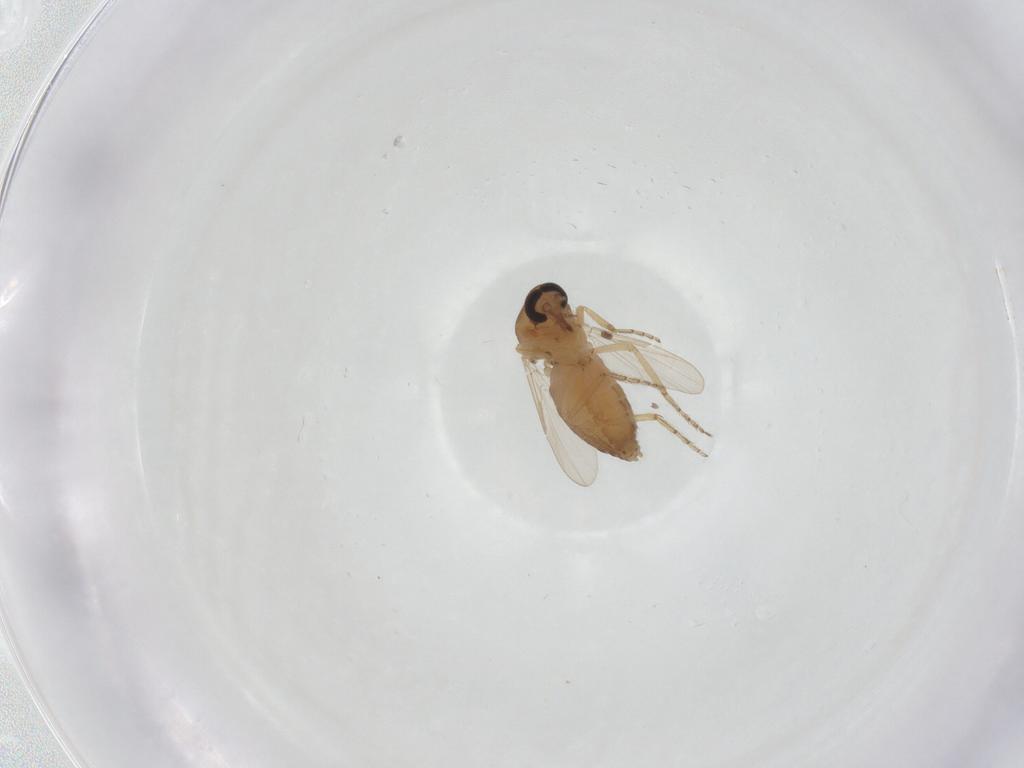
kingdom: Animalia
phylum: Arthropoda
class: Insecta
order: Diptera
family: Ceratopogonidae
